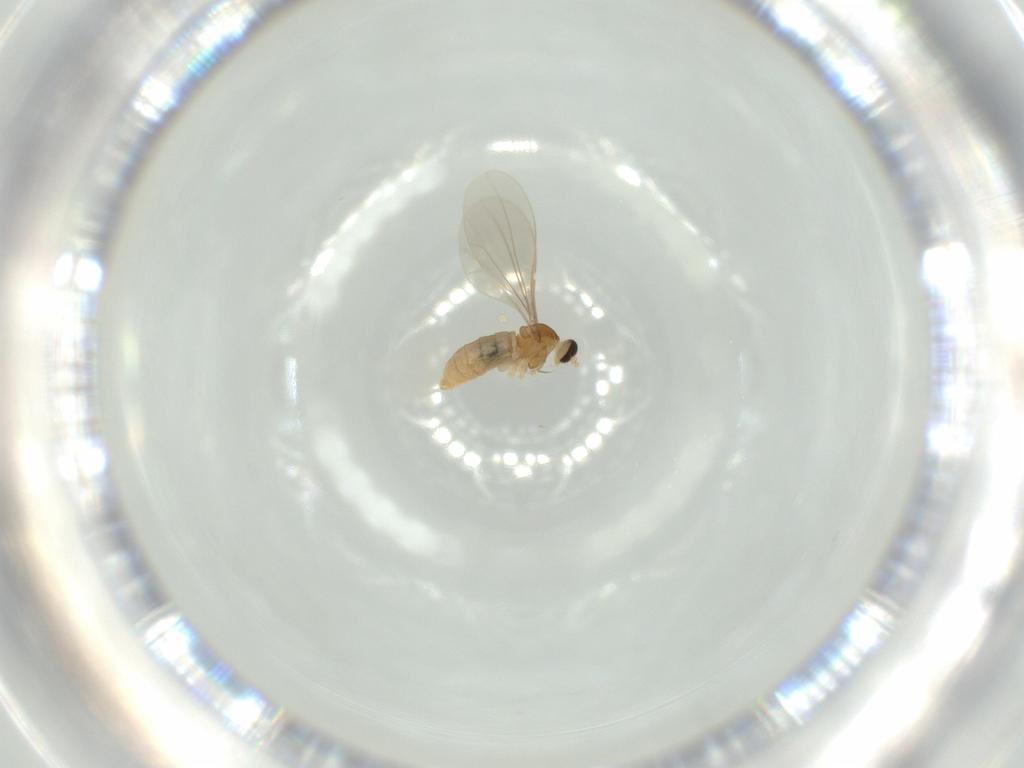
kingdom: Animalia
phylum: Arthropoda
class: Insecta
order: Diptera
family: Cecidomyiidae
